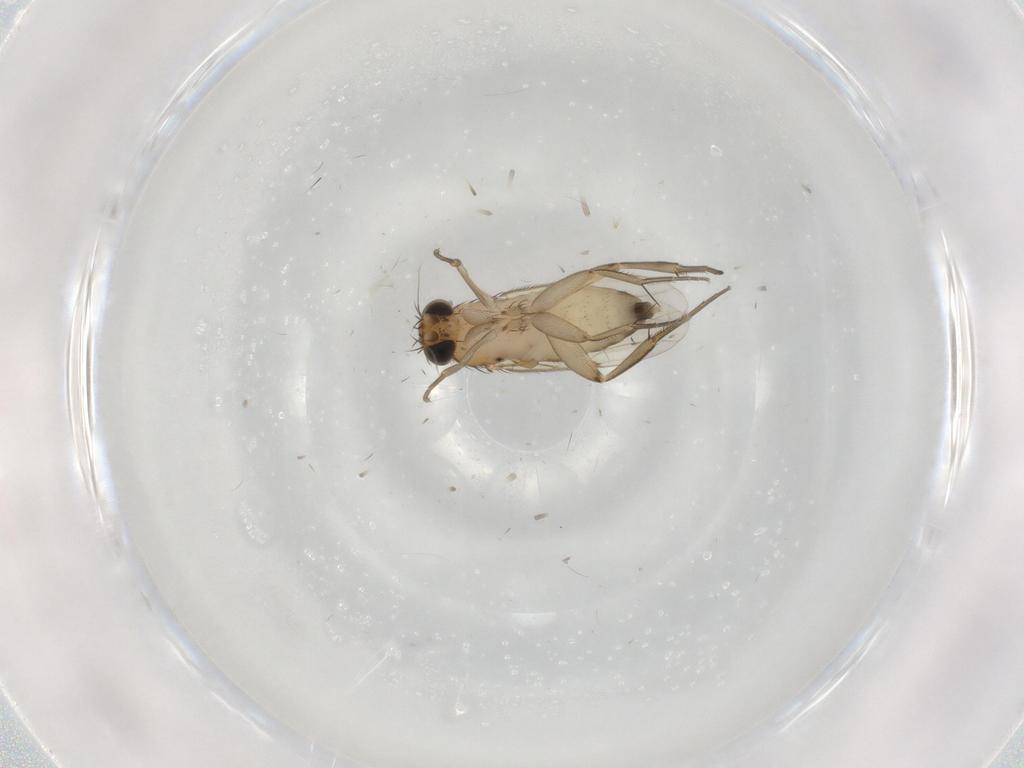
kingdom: Animalia
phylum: Arthropoda
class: Insecta
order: Diptera
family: Phoridae
